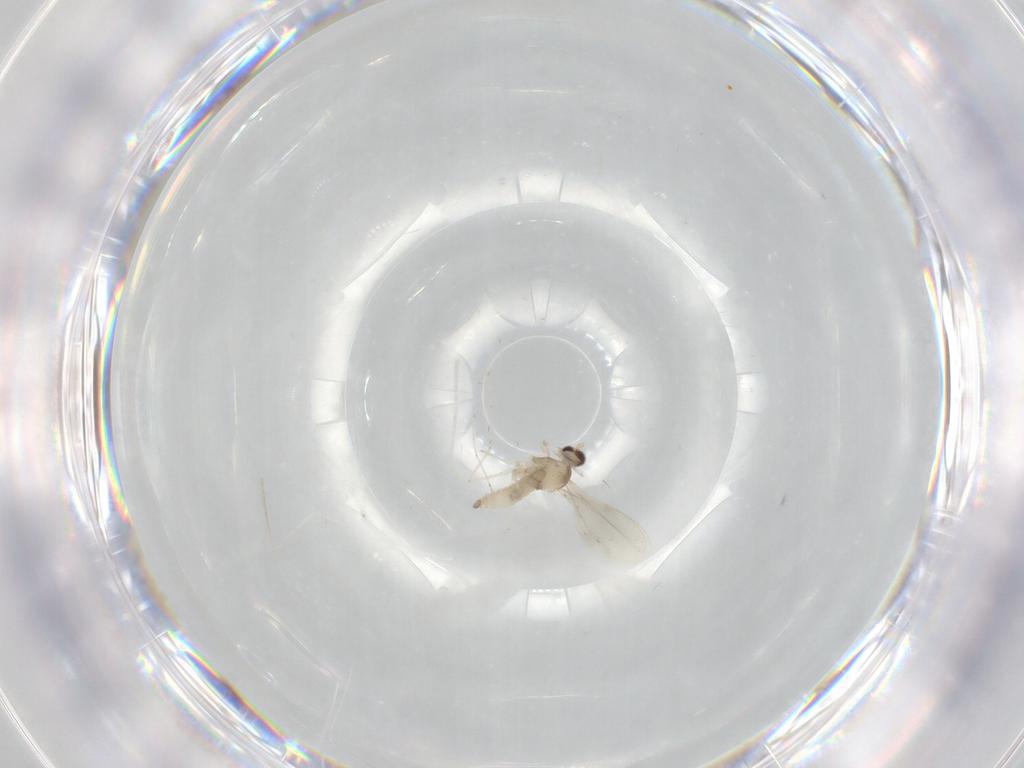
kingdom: Animalia
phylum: Arthropoda
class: Insecta
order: Diptera
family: Cecidomyiidae
